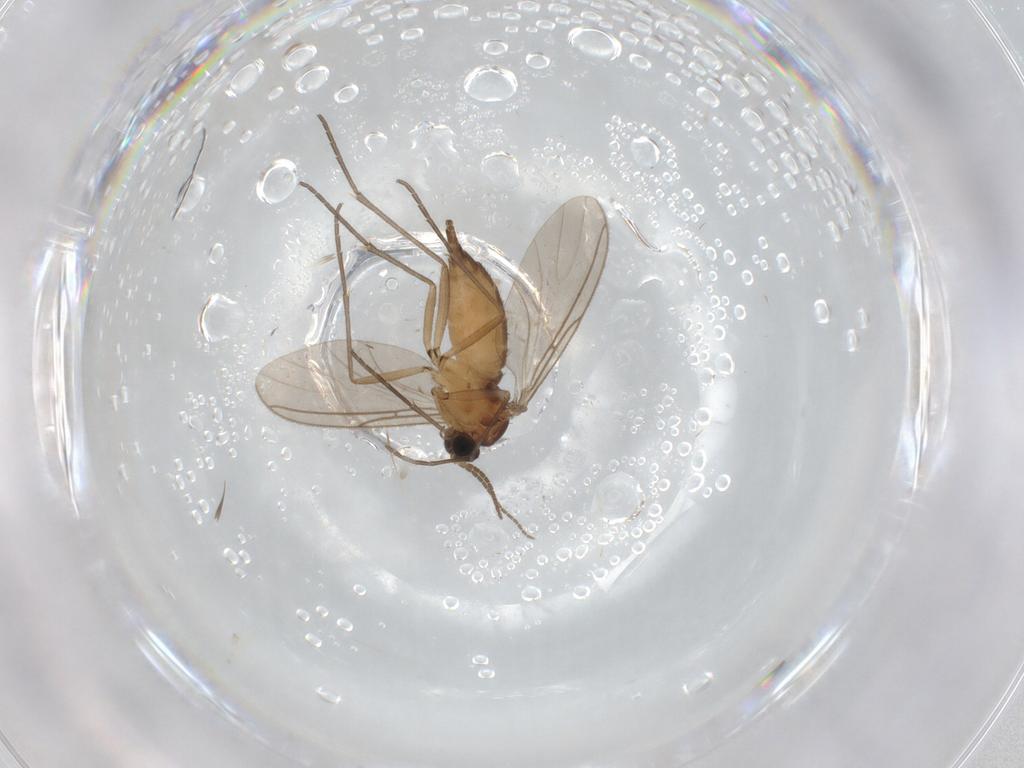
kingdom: Animalia
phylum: Arthropoda
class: Insecta
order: Diptera
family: Sciaridae
